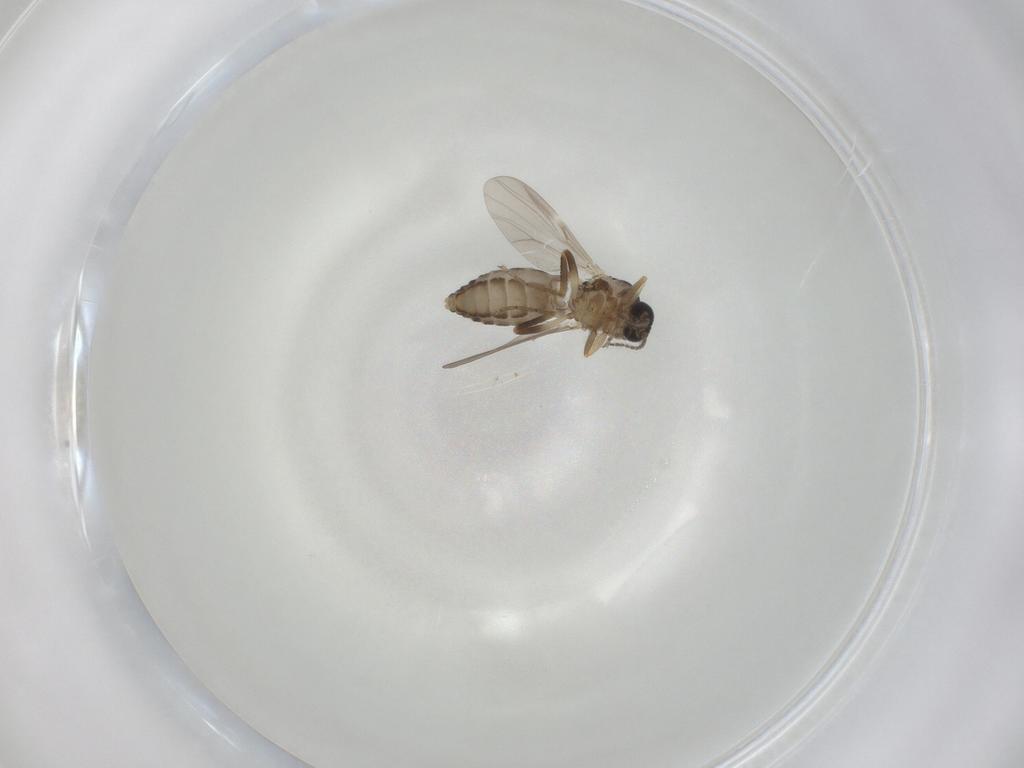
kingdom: Animalia
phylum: Arthropoda
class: Insecta
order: Diptera
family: Ceratopogonidae
